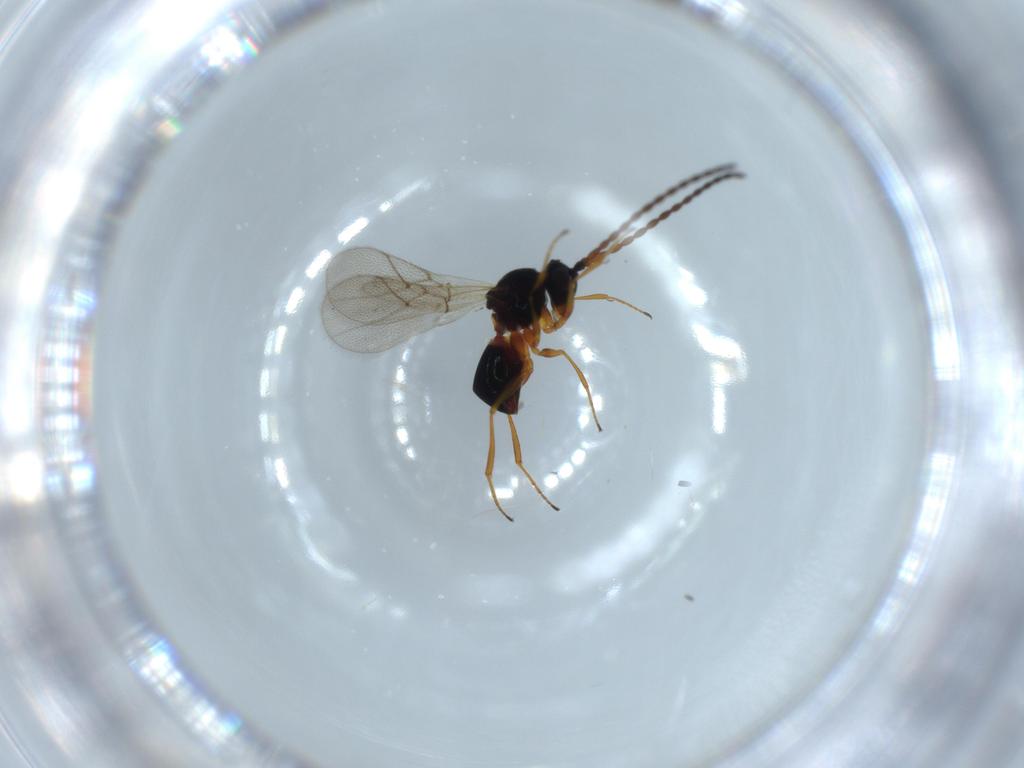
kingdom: Animalia
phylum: Arthropoda
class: Insecta
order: Hymenoptera
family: Figitidae
